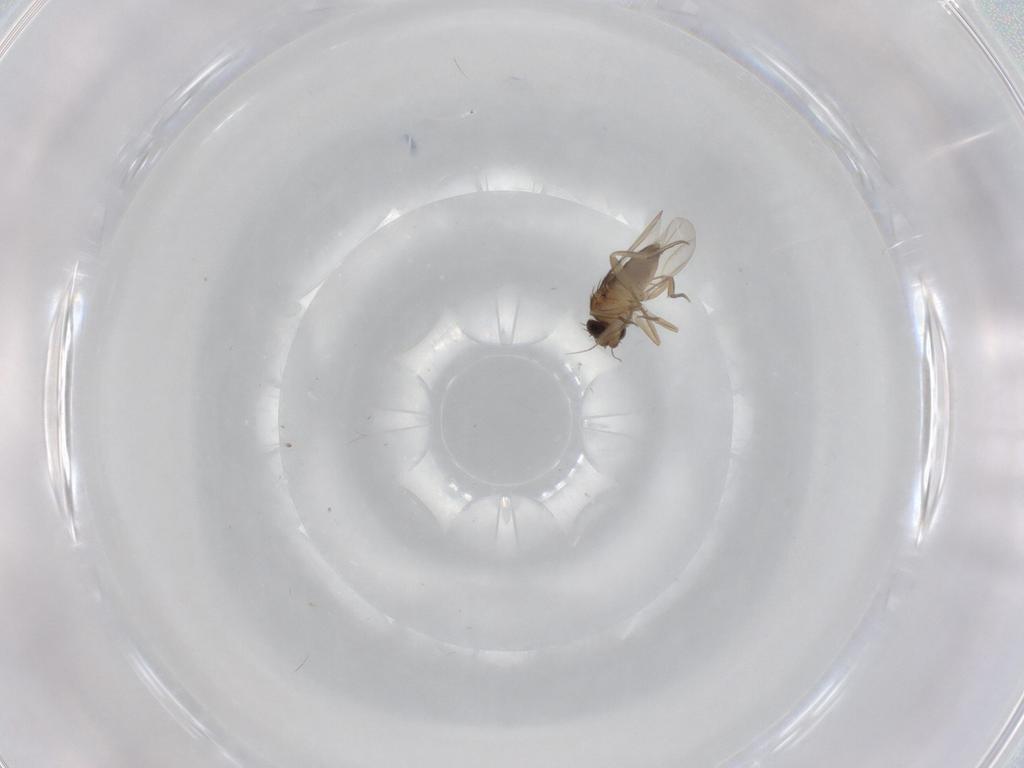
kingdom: Animalia
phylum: Arthropoda
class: Insecta
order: Diptera
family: Phoridae
